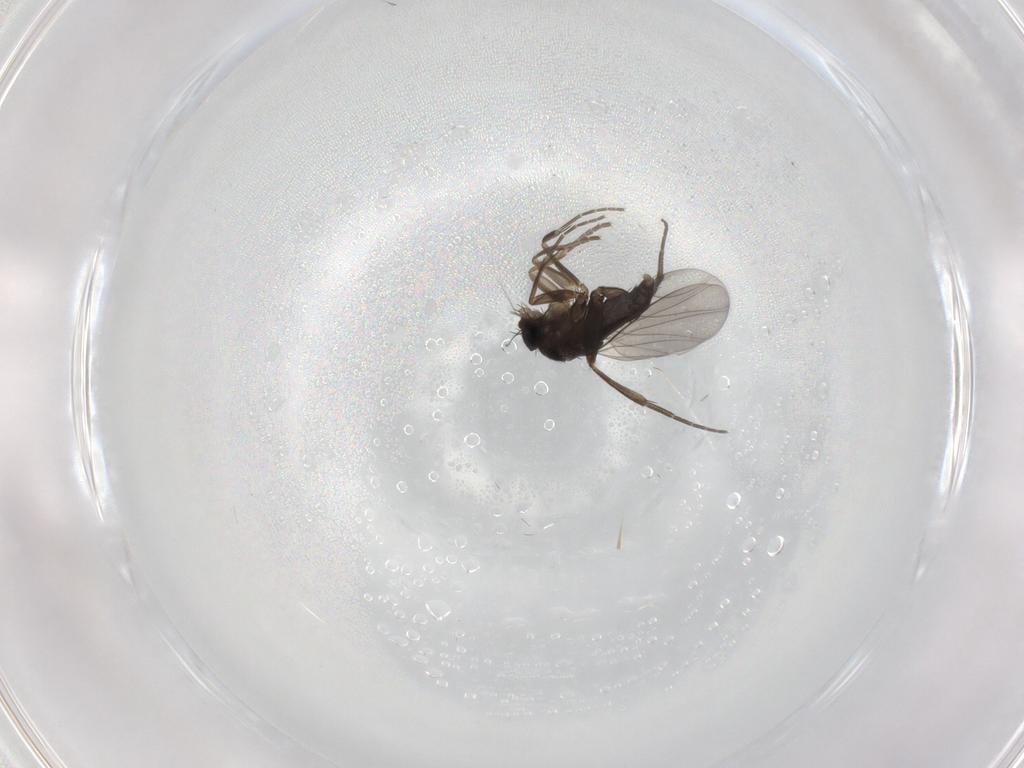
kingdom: Animalia
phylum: Arthropoda
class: Insecta
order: Diptera
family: Phoridae
